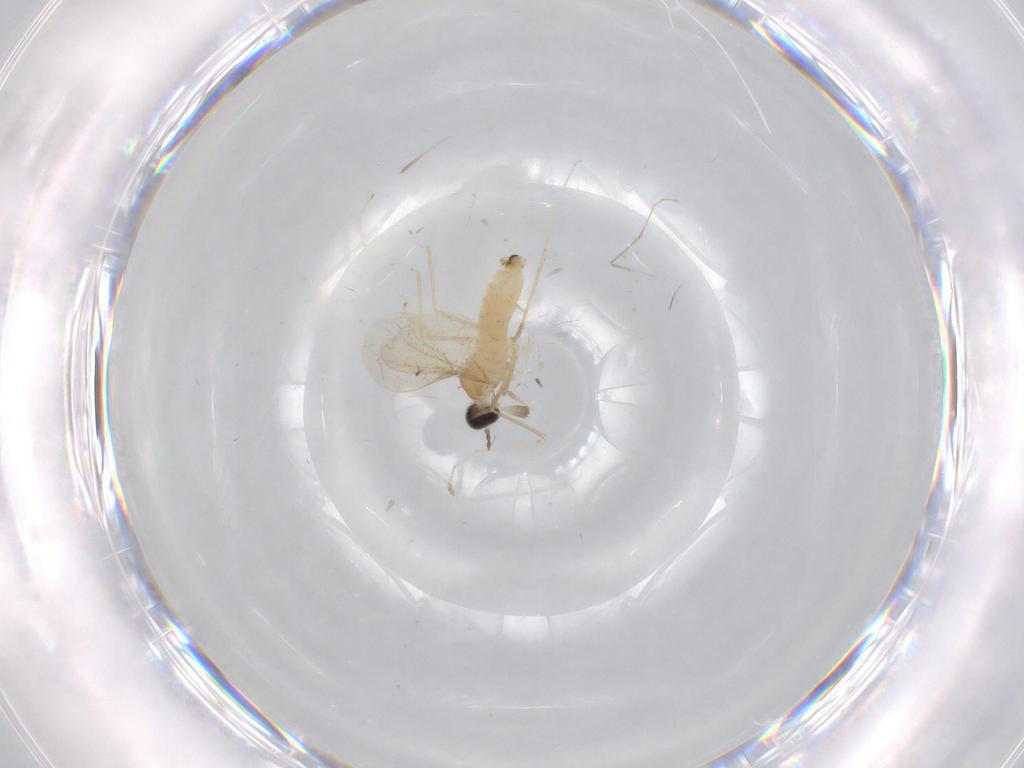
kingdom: Animalia
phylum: Arthropoda
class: Insecta
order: Diptera
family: Cecidomyiidae
